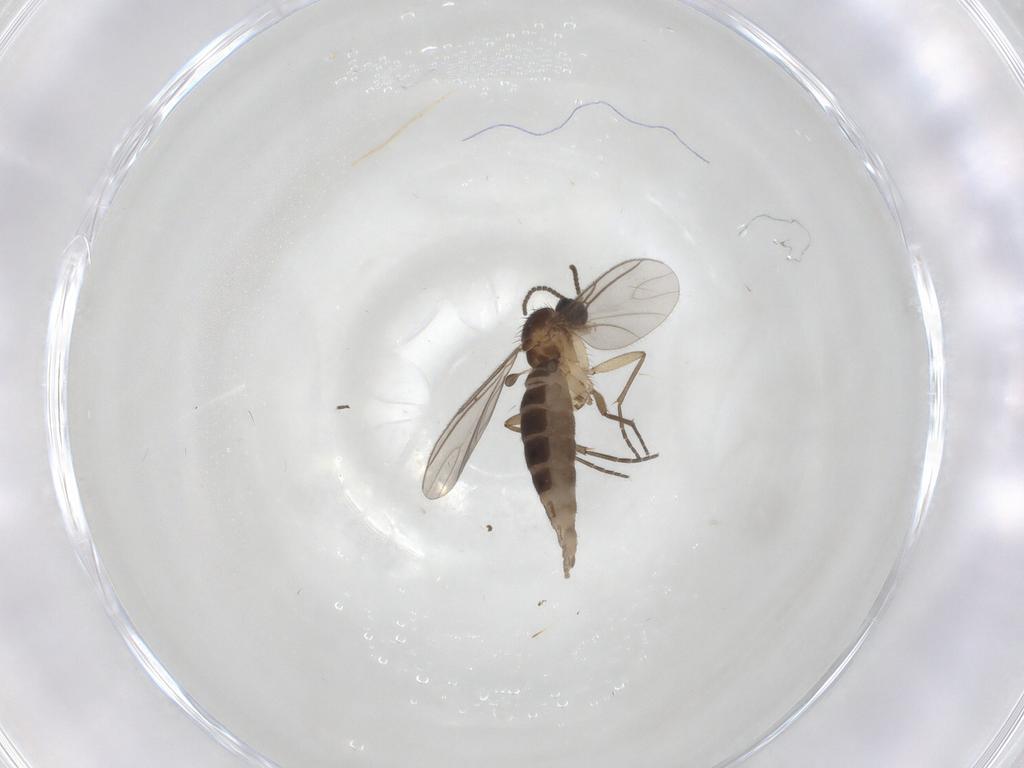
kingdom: Animalia
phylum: Arthropoda
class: Insecta
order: Diptera
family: Sciaridae
